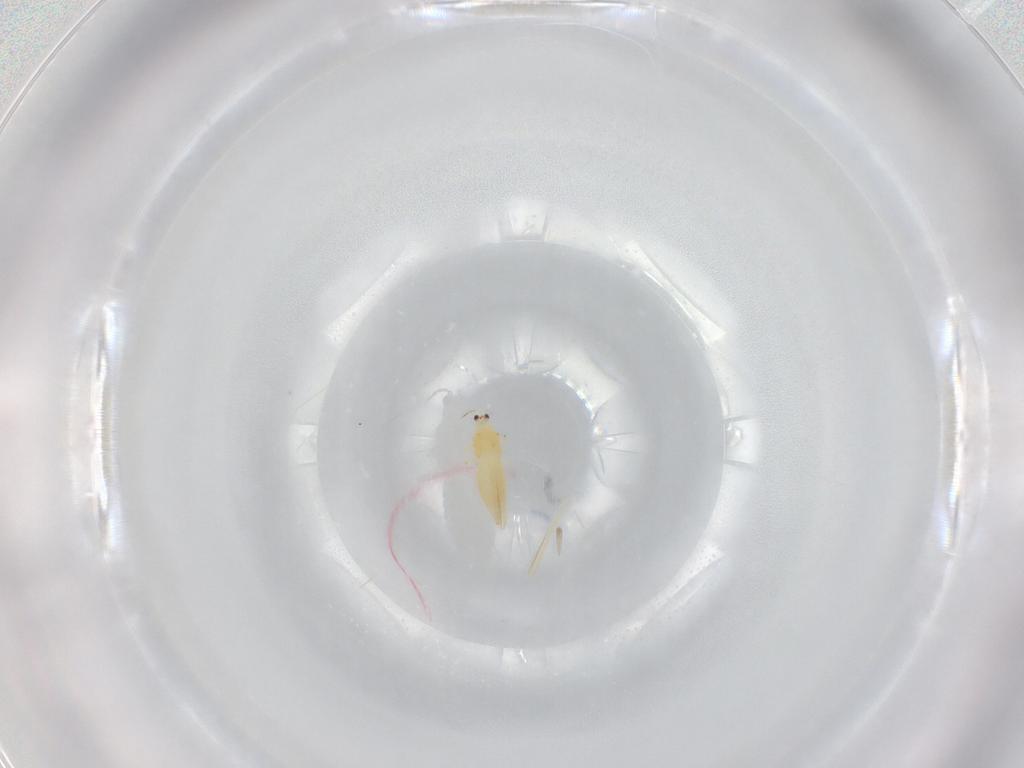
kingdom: Animalia
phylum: Arthropoda
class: Insecta
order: Thysanoptera
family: Thripidae
